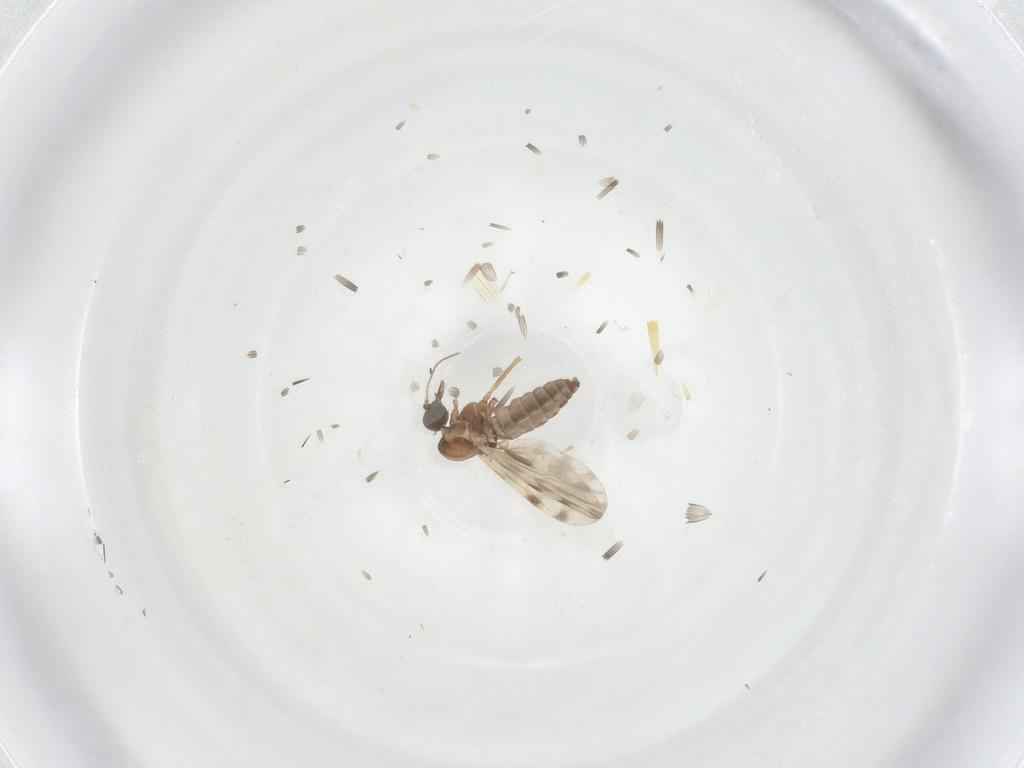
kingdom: Animalia
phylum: Arthropoda
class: Insecta
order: Diptera
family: Ceratopogonidae
